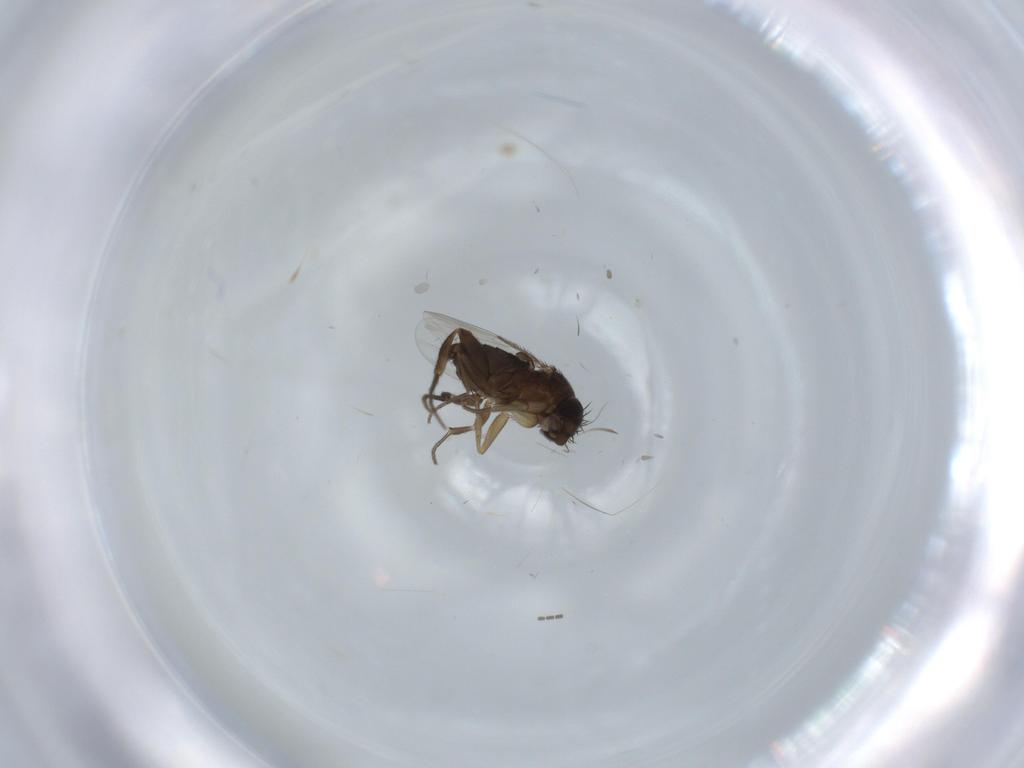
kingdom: Animalia
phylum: Arthropoda
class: Insecta
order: Diptera
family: Phoridae
